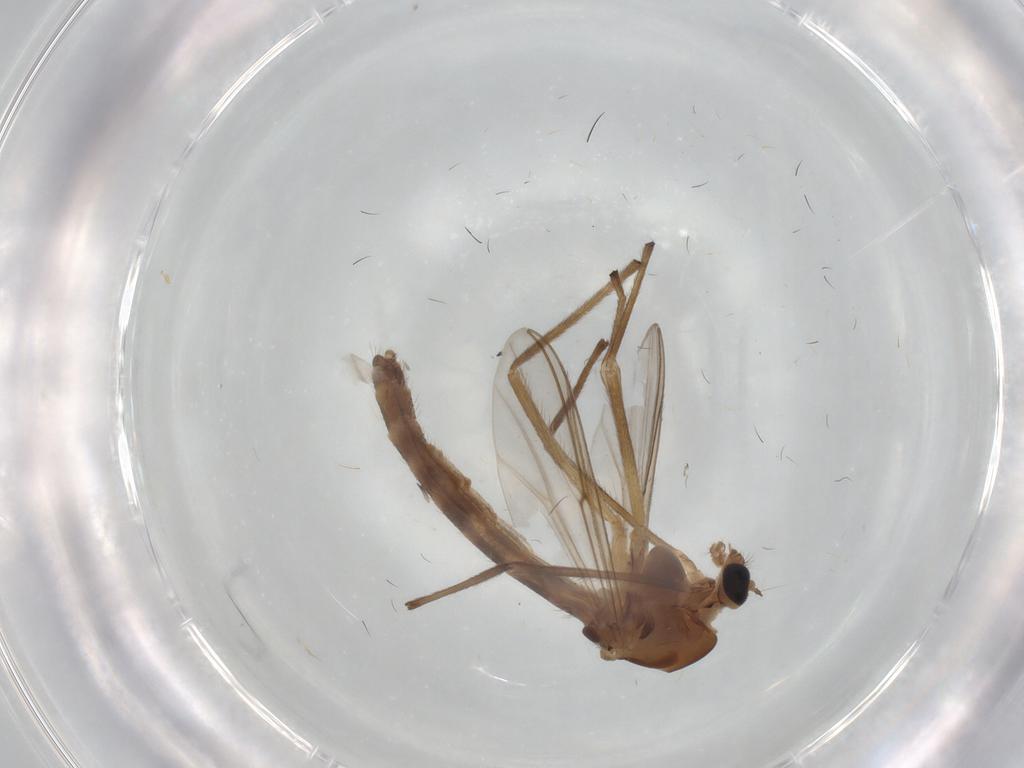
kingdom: Animalia
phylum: Arthropoda
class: Insecta
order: Diptera
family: Chironomidae
